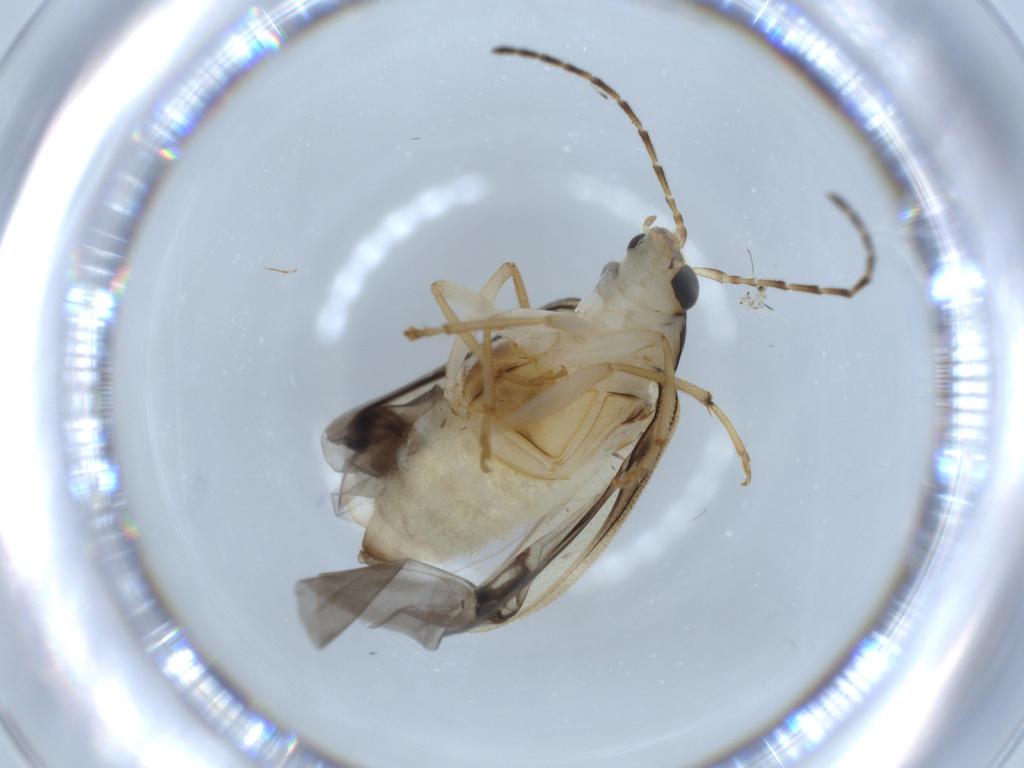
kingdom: Animalia
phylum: Arthropoda
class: Insecta
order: Coleoptera
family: Chrysomelidae
